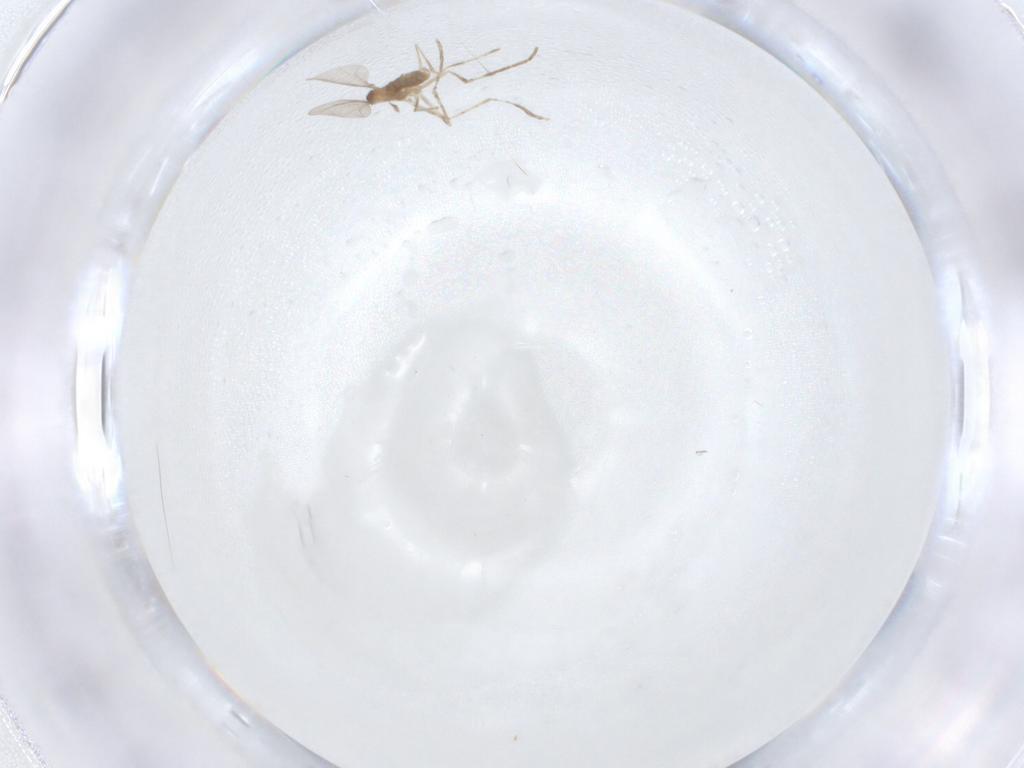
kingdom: Animalia
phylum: Arthropoda
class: Insecta
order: Diptera
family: Cecidomyiidae
